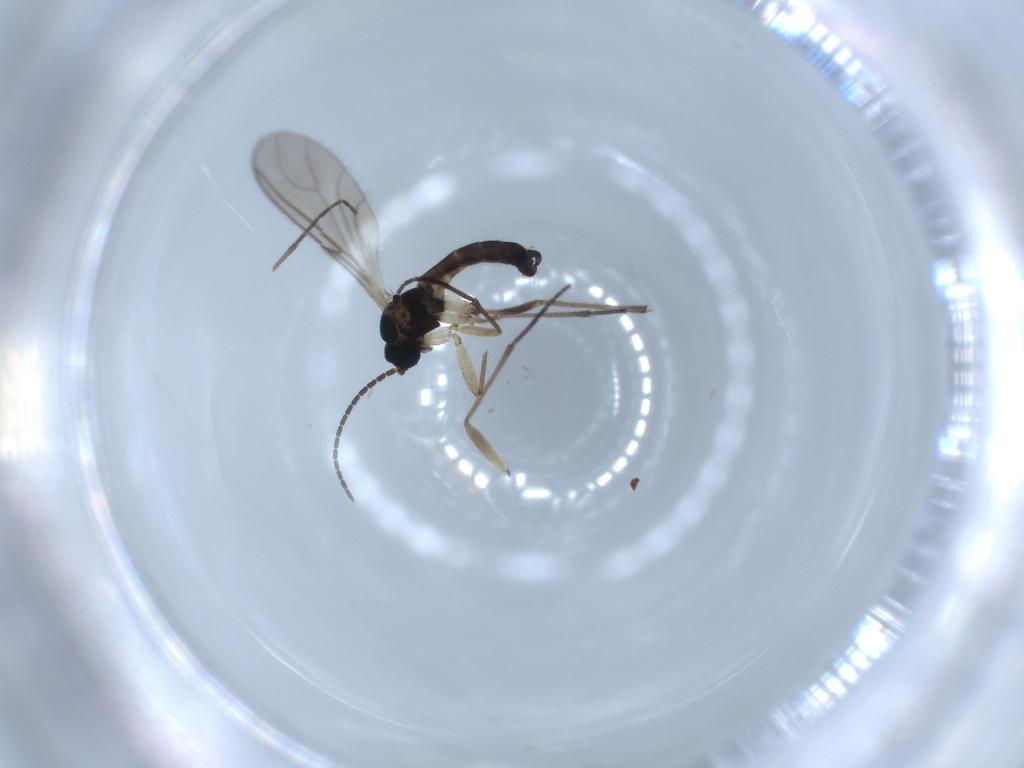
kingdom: Animalia
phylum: Arthropoda
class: Insecta
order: Diptera
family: Sciaridae
